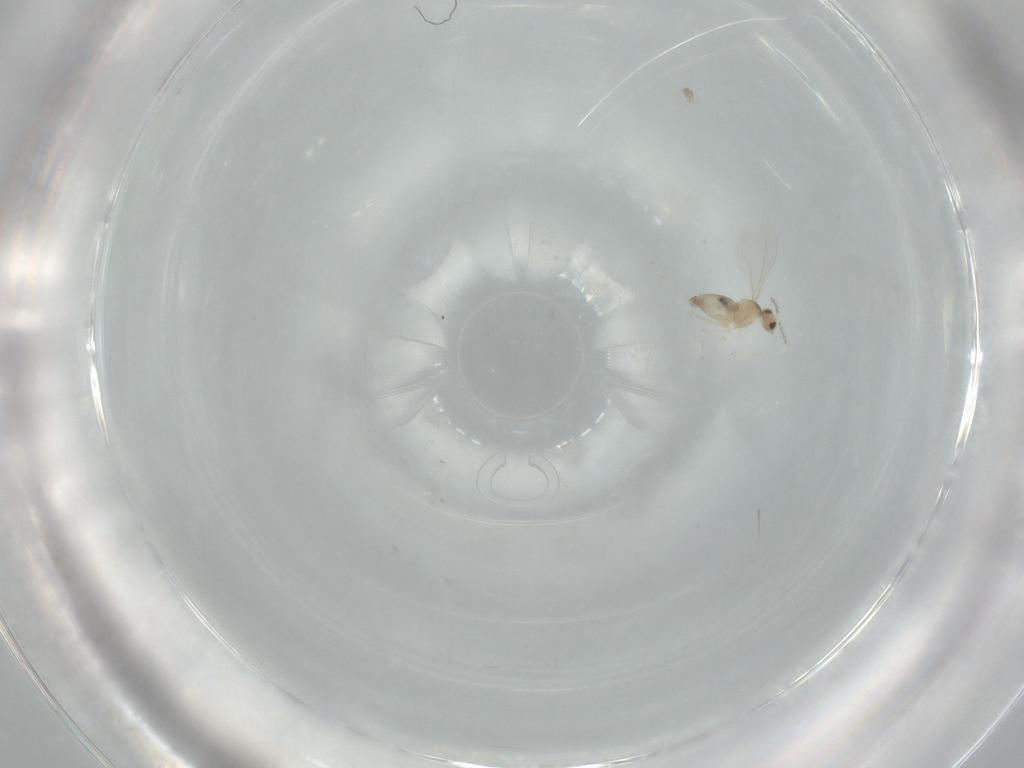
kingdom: Animalia
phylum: Arthropoda
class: Insecta
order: Diptera
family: Cecidomyiidae
